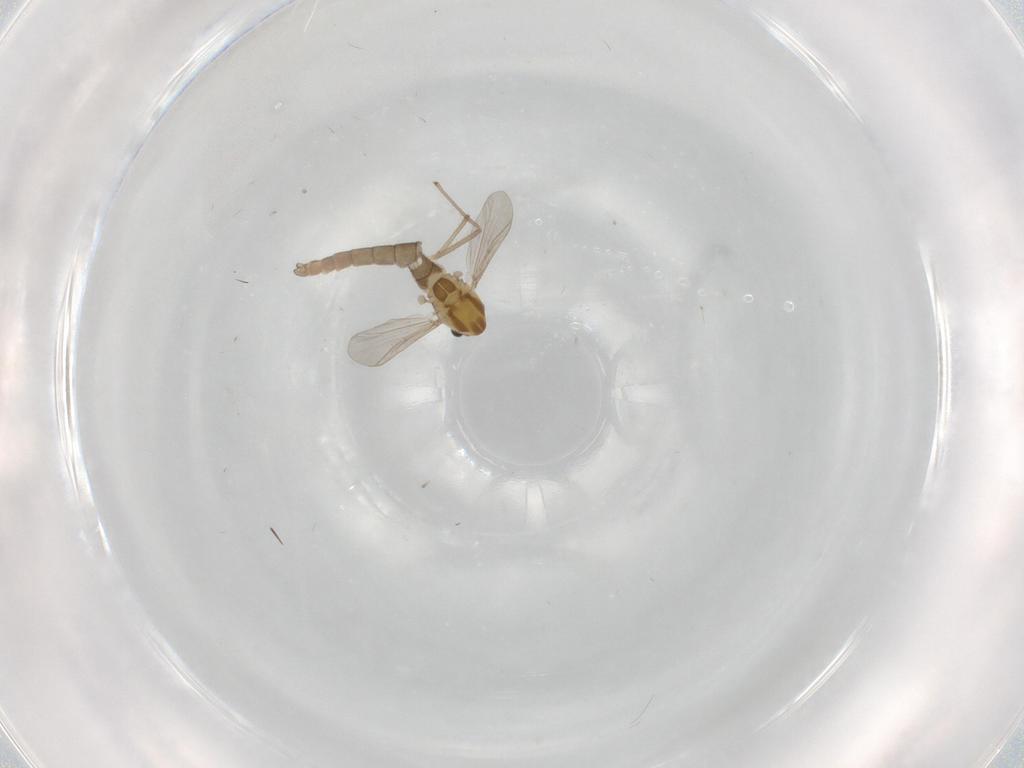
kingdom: Animalia
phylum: Arthropoda
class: Insecta
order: Diptera
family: Chironomidae
